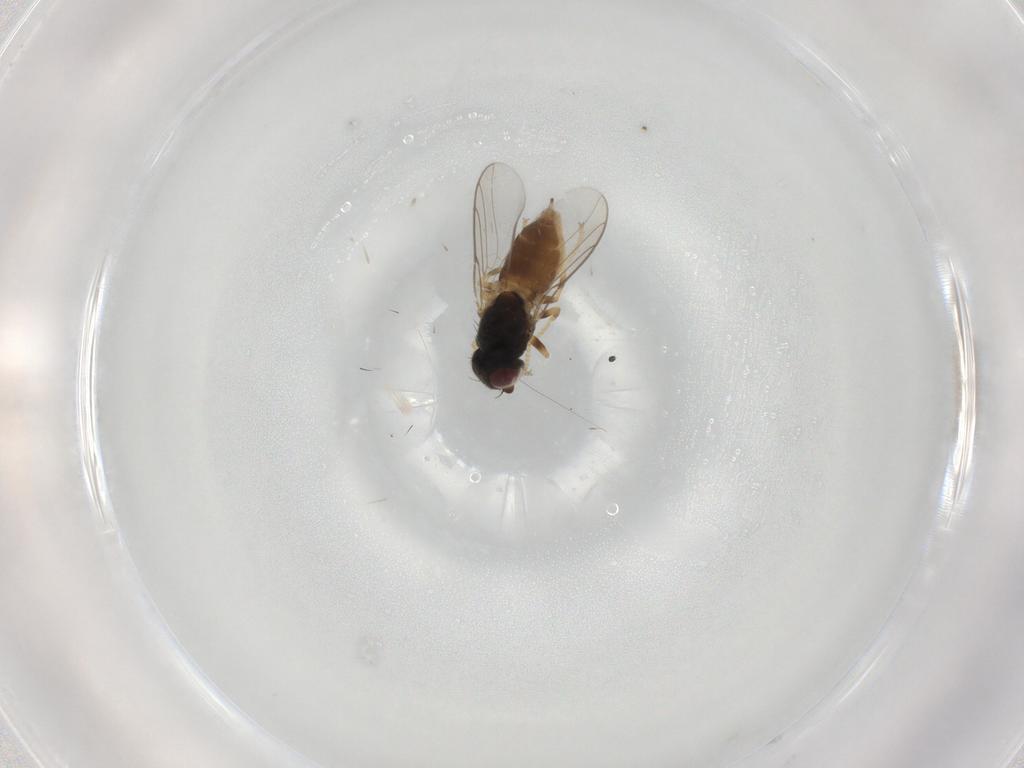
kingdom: Animalia
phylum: Arthropoda
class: Insecta
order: Diptera
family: Chloropidae
